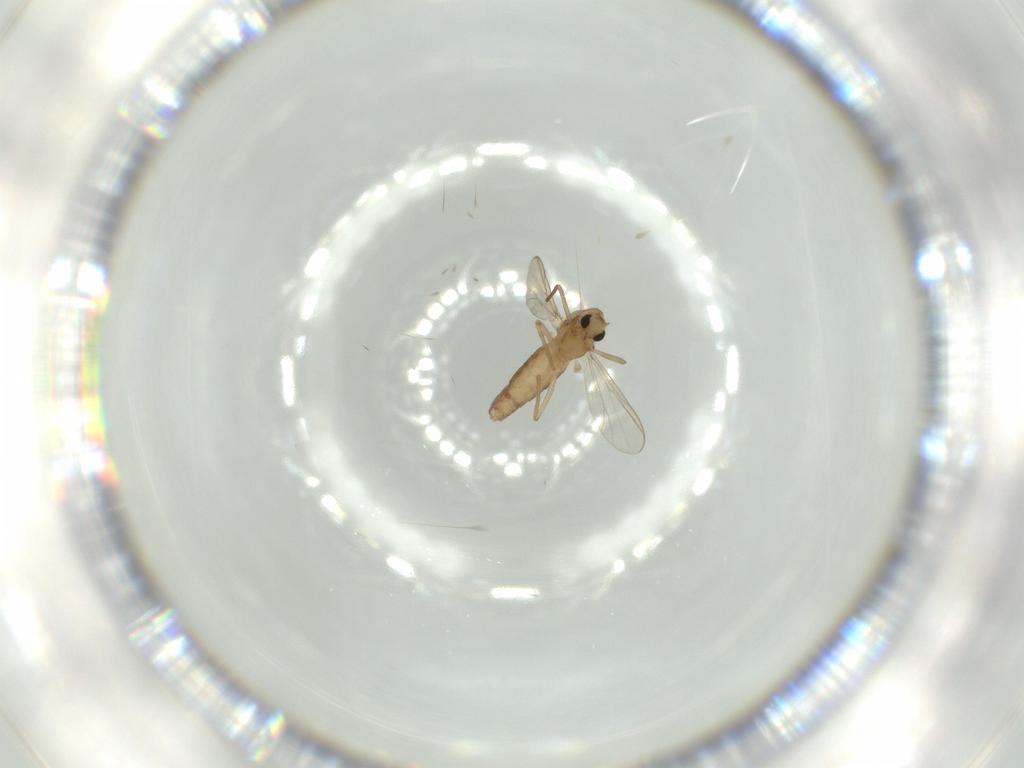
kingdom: Animalia
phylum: Arthropoda
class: Insecta
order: Diptera
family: Chironomidae
